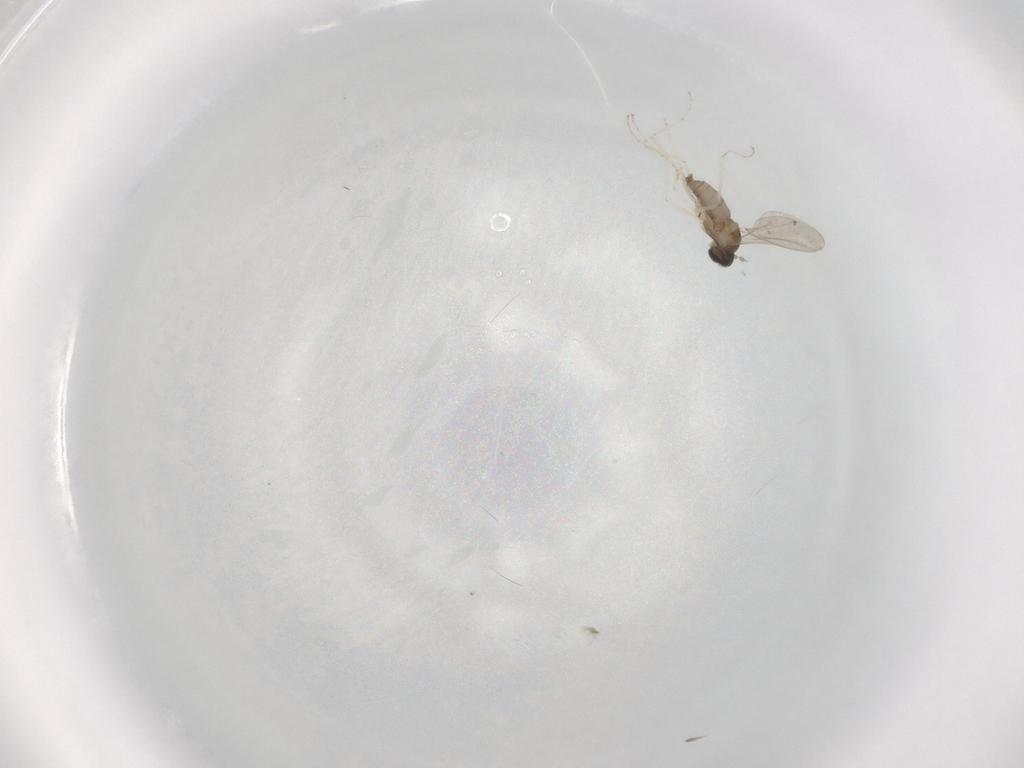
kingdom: Animalia
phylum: Arthropoda
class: Insecta
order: Diptera
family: Cecidomyiidae
